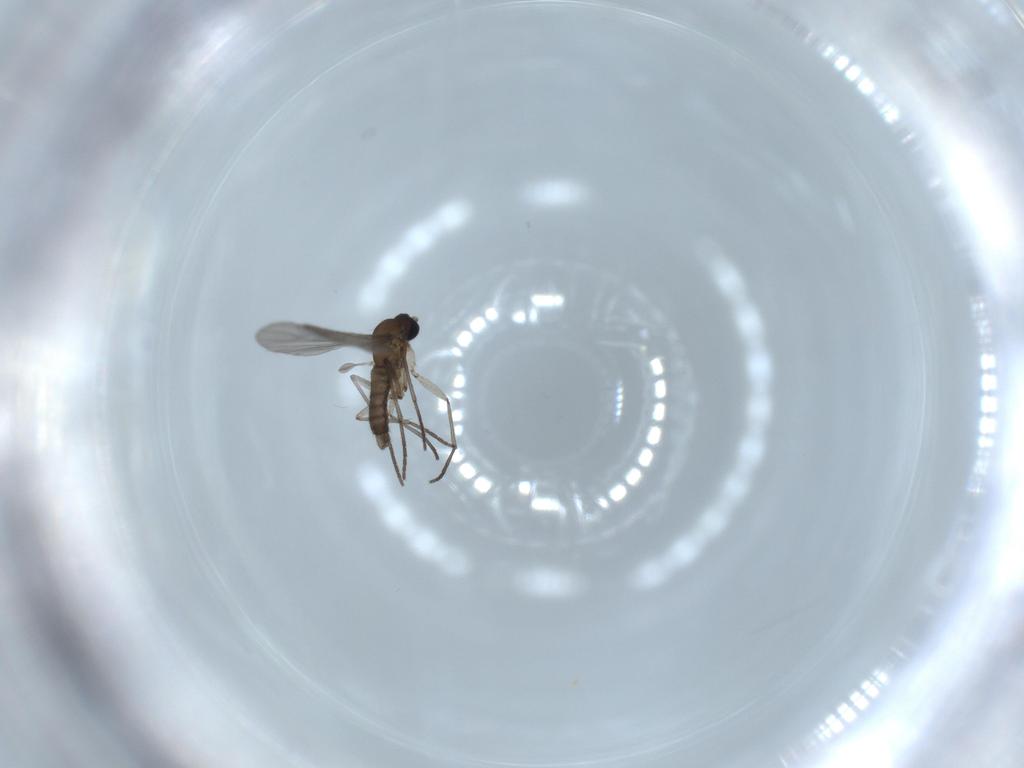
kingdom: Animalia
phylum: Arthropoda
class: Insecta
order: Diptera
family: Sciaridae
